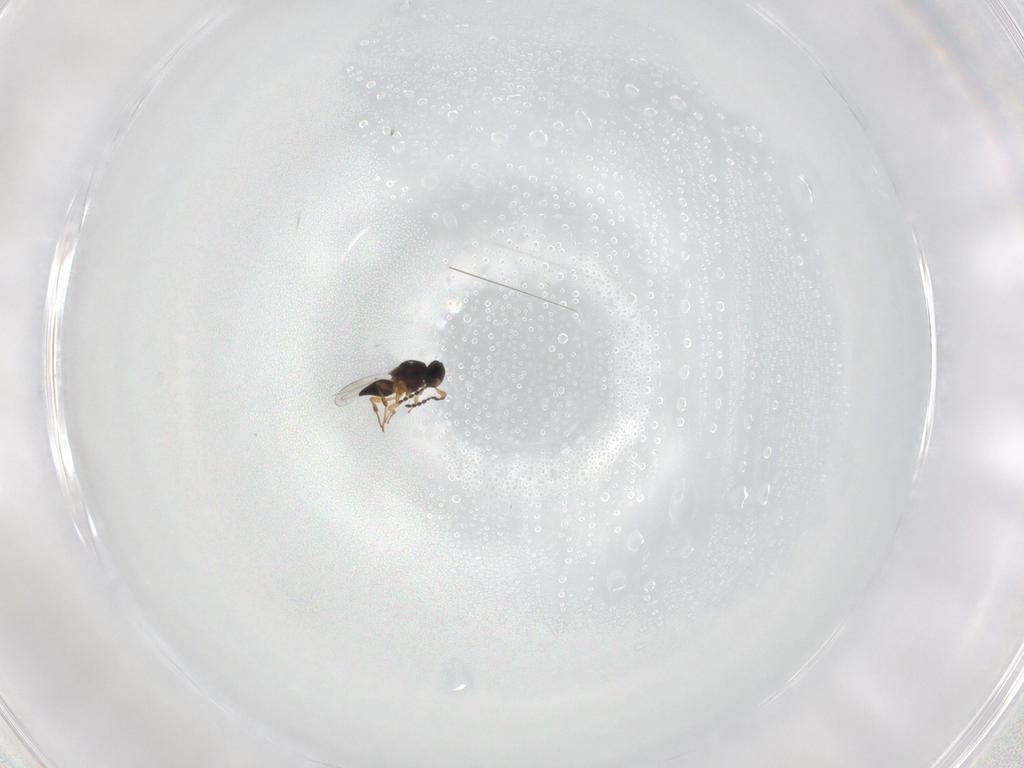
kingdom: Animalia
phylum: Arthropoda
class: Insecta
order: Hymenoptera
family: Platygastridae
